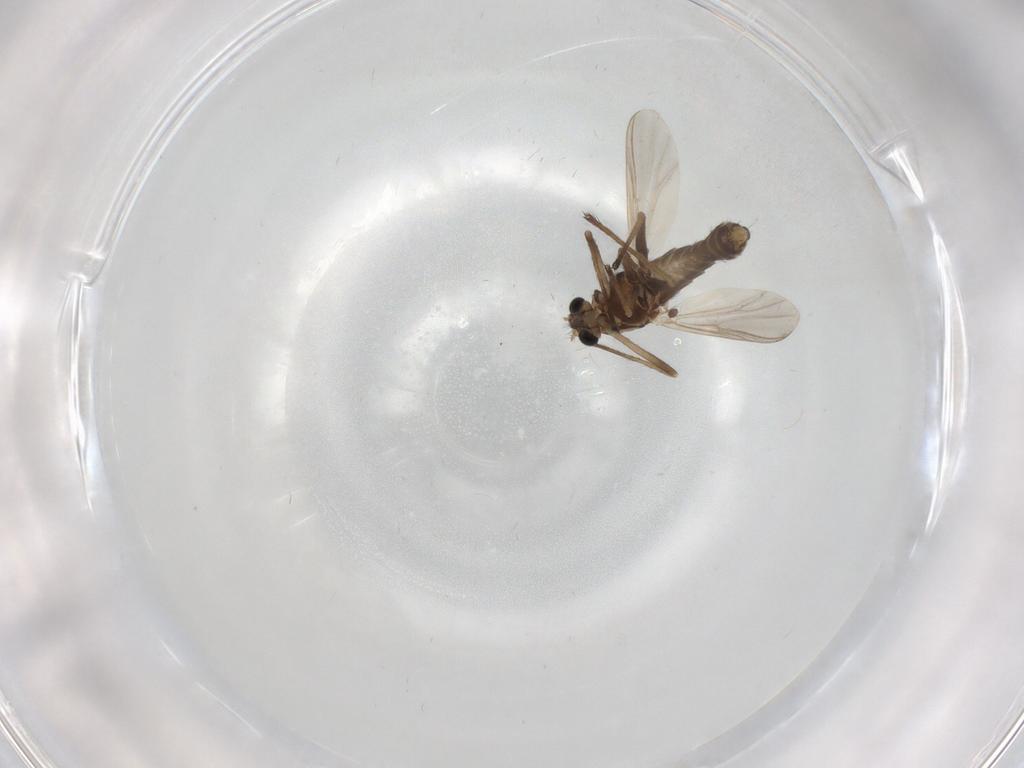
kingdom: Animalia
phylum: Arthropoda
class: Insecta
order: Diptera
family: Chironomidae
